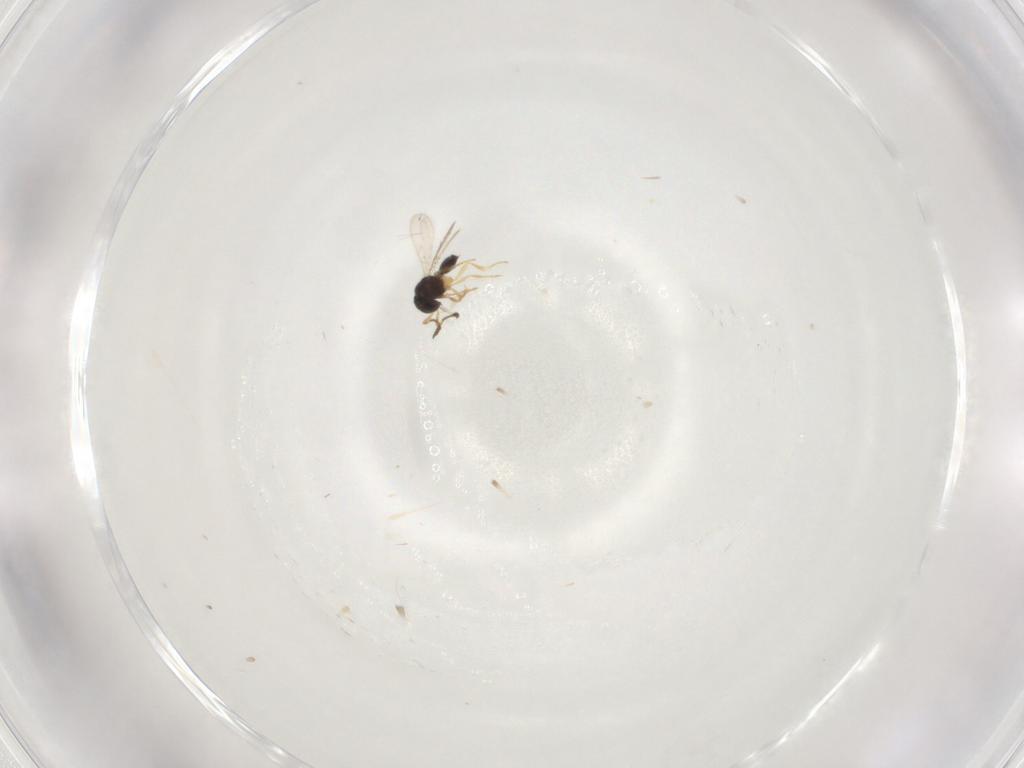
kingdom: Animalia
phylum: Arthropoda
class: Insecta
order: Hymenoptera
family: Scelionidae
